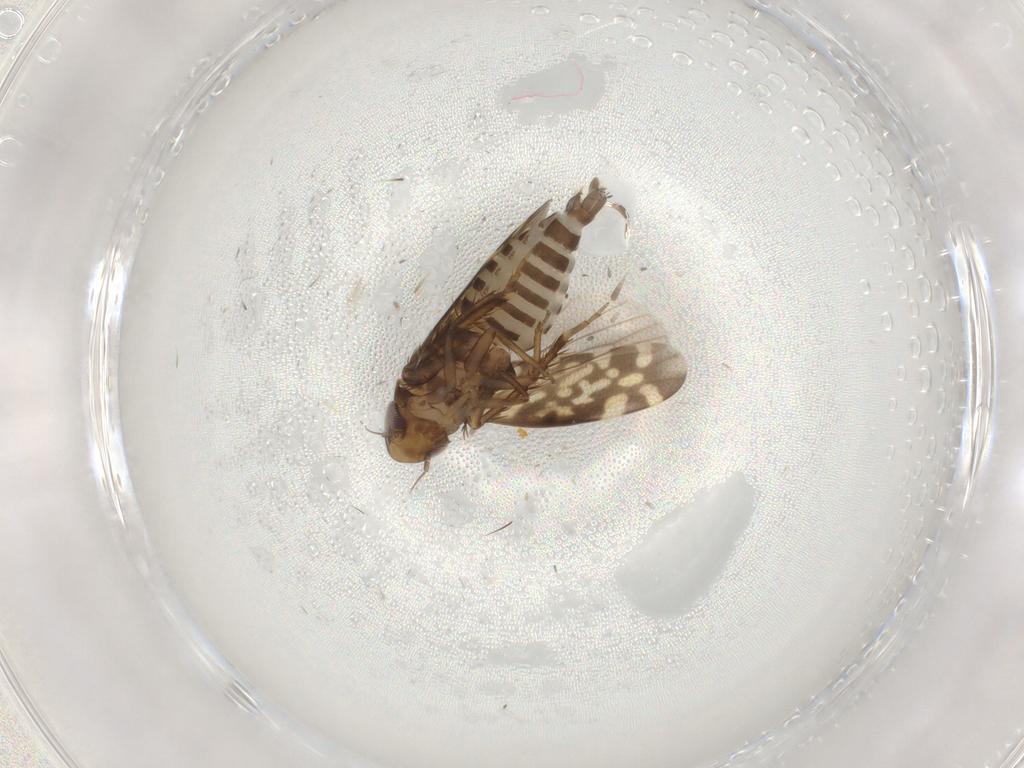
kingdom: Animalia
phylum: Arthropoda
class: Insecta
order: Hemiptera
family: Cicadellidae
